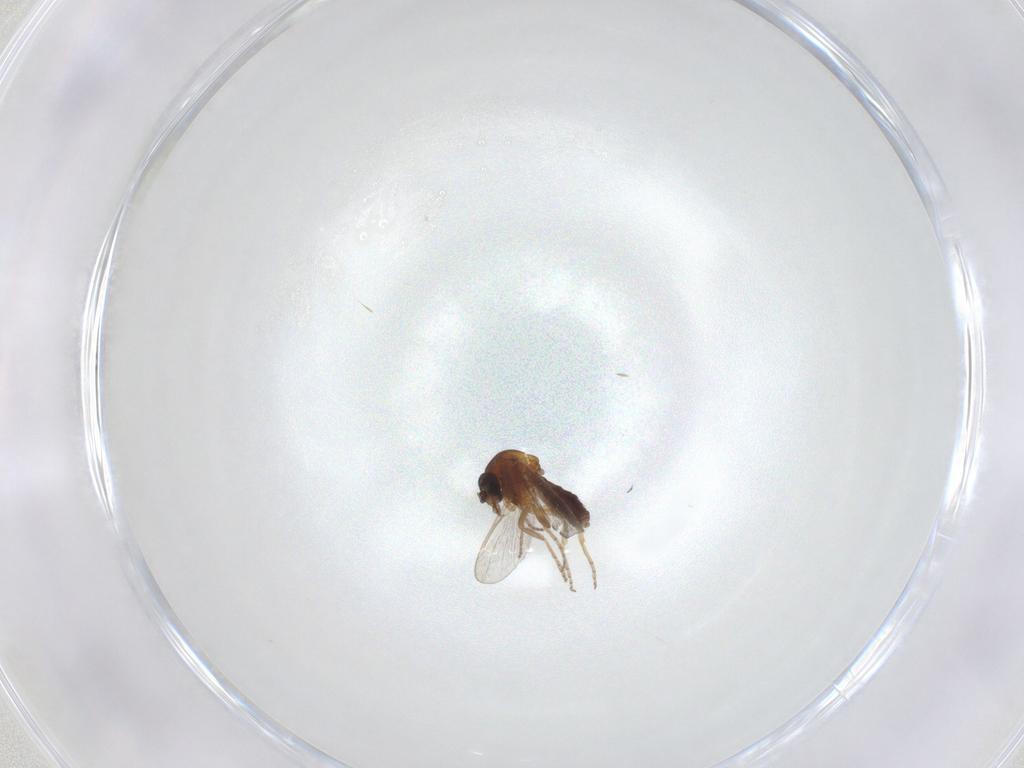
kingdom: Animalia
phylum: Arthropoda
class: Insecta
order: Diptera
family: Ceratopogonidae
